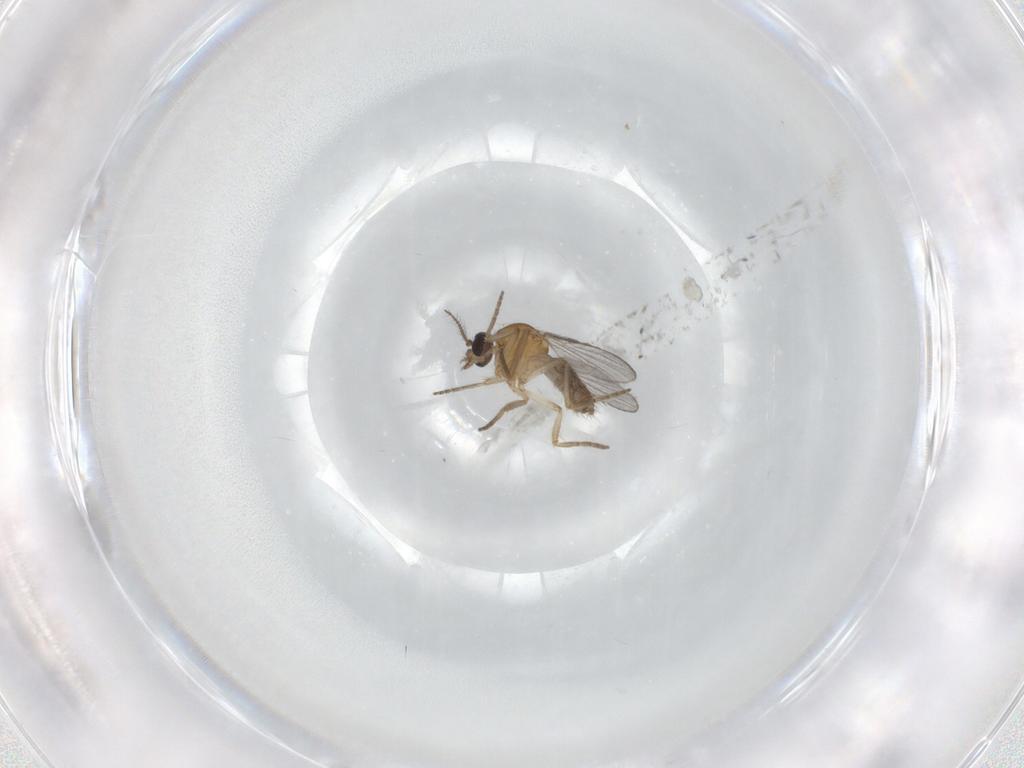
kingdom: Animalia
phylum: Arthropoda
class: Insecta
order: Diptera
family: Ceratopogonidae
